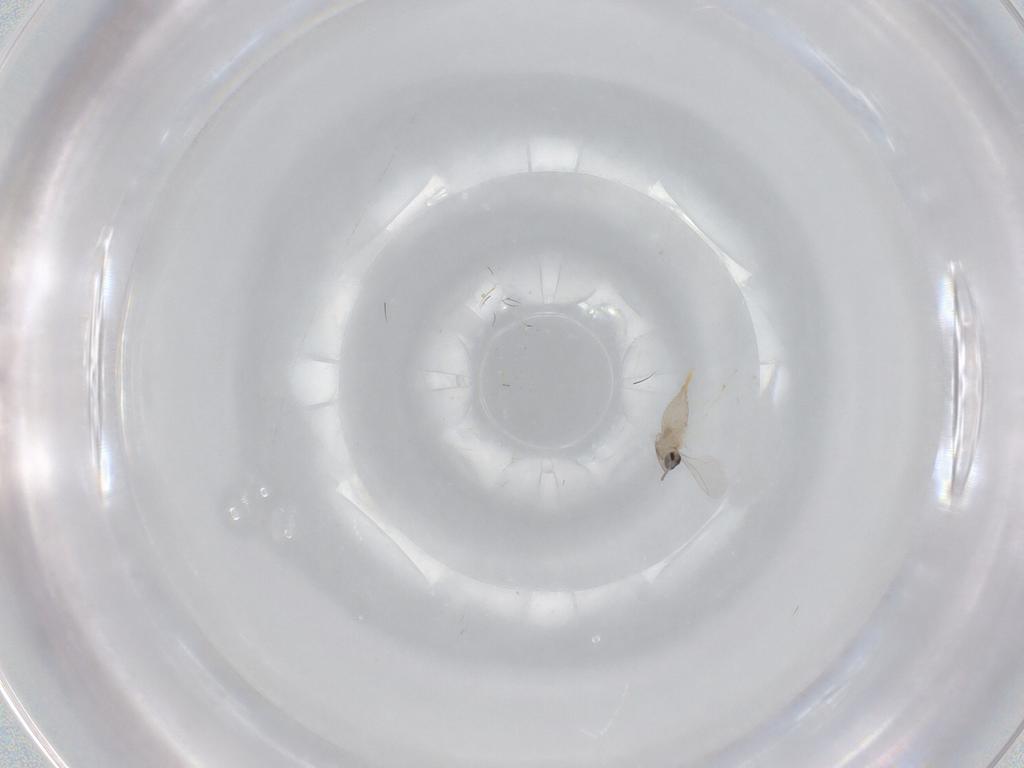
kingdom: Animalia
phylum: Arthropoda
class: Insecta
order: Diptera
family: Cecidomyiidae
